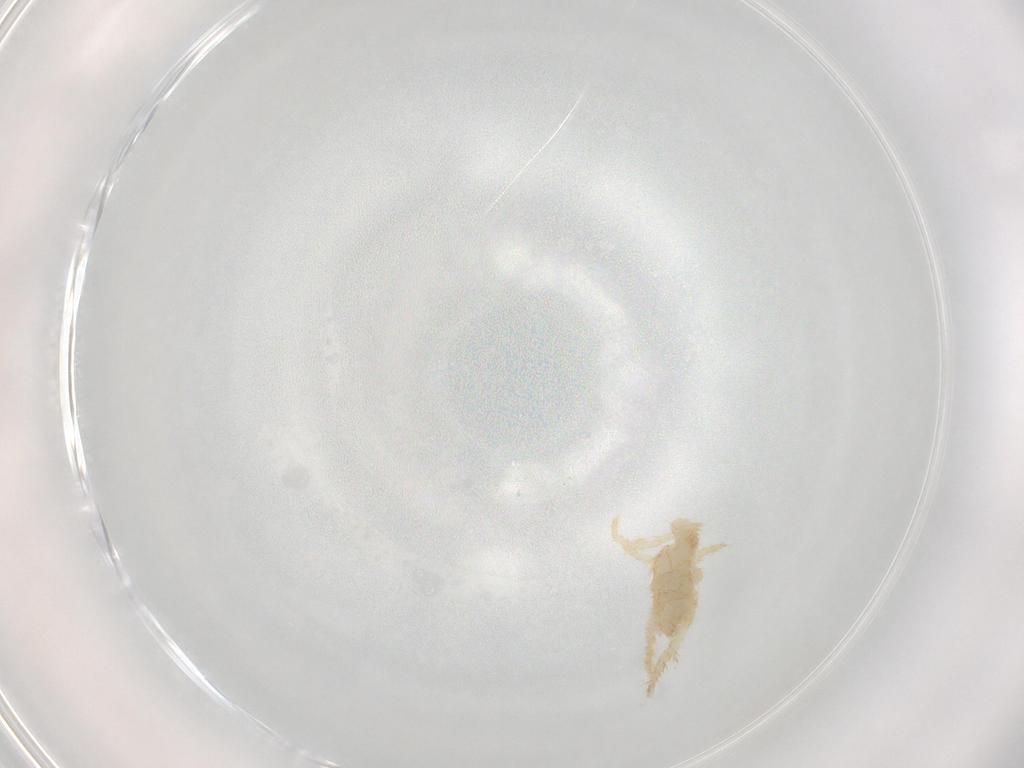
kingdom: Animalia
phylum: Arthropoda
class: Arachnida
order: Mesostigmata
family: Parasitidae
